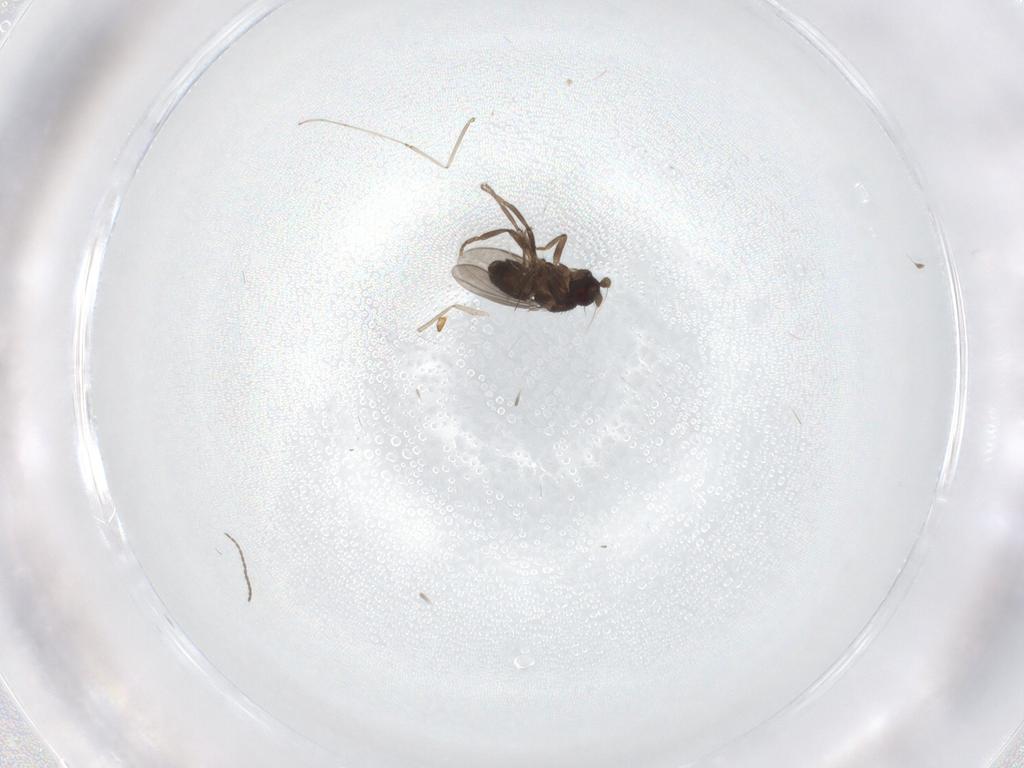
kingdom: Animalia
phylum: Arthropoda
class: Insecta
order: Diptera
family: Sphaeroceridae
